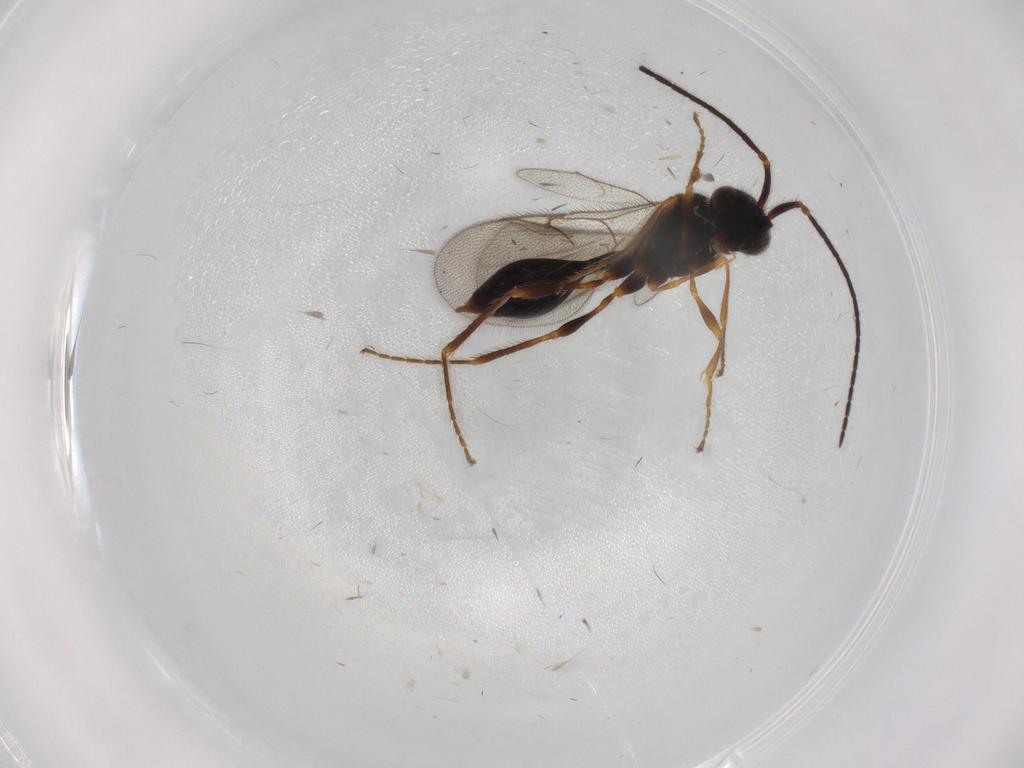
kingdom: Animalia
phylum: Arthropoda
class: Insecta
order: Hymenoptera
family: Diapriidae
